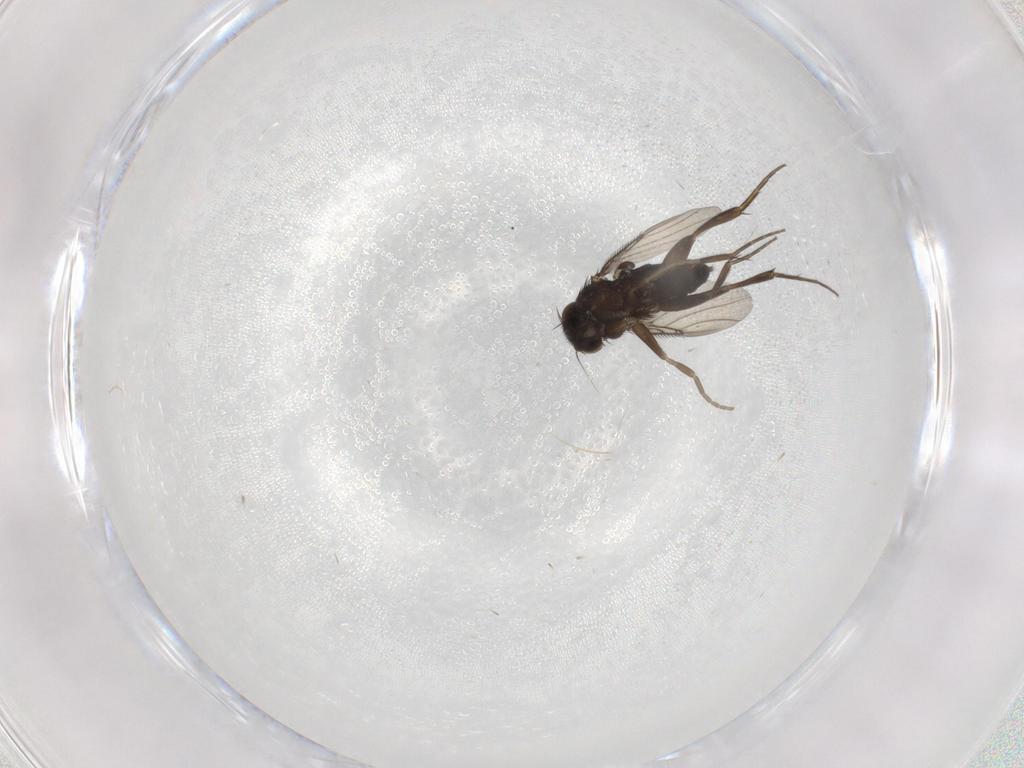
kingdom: Animalia
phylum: Arthropoda
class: Insecta
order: Diptera
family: Phoridae
